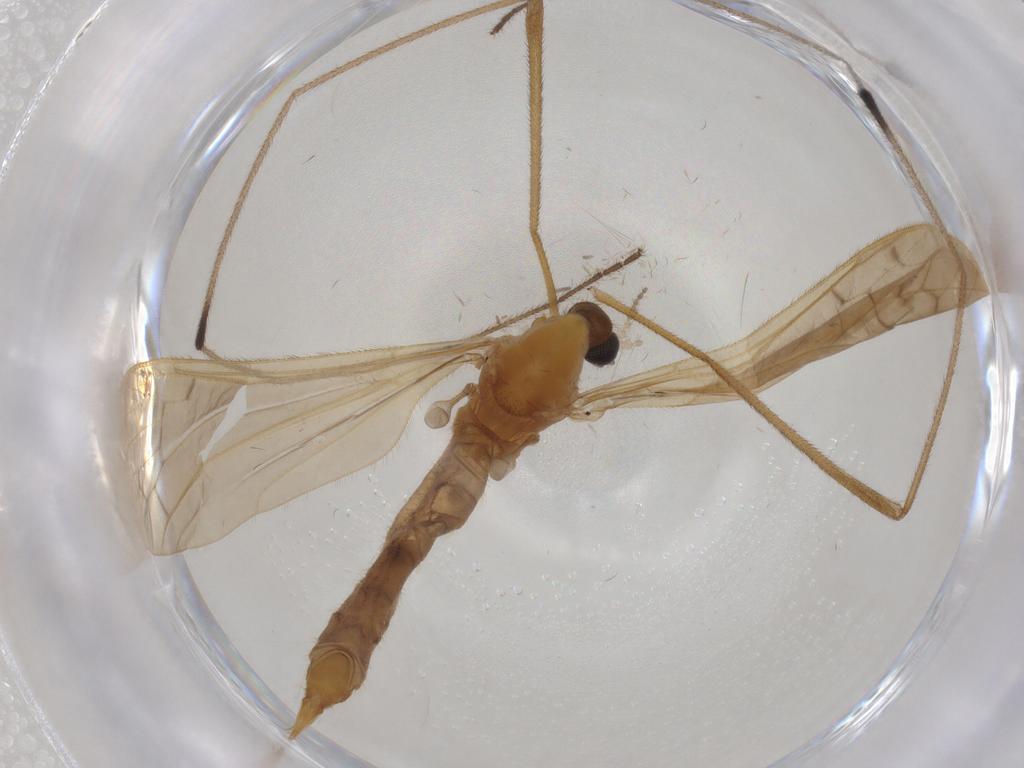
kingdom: Animalia
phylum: Arthropoda
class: Insecta
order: Diptera
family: Limoniidae
